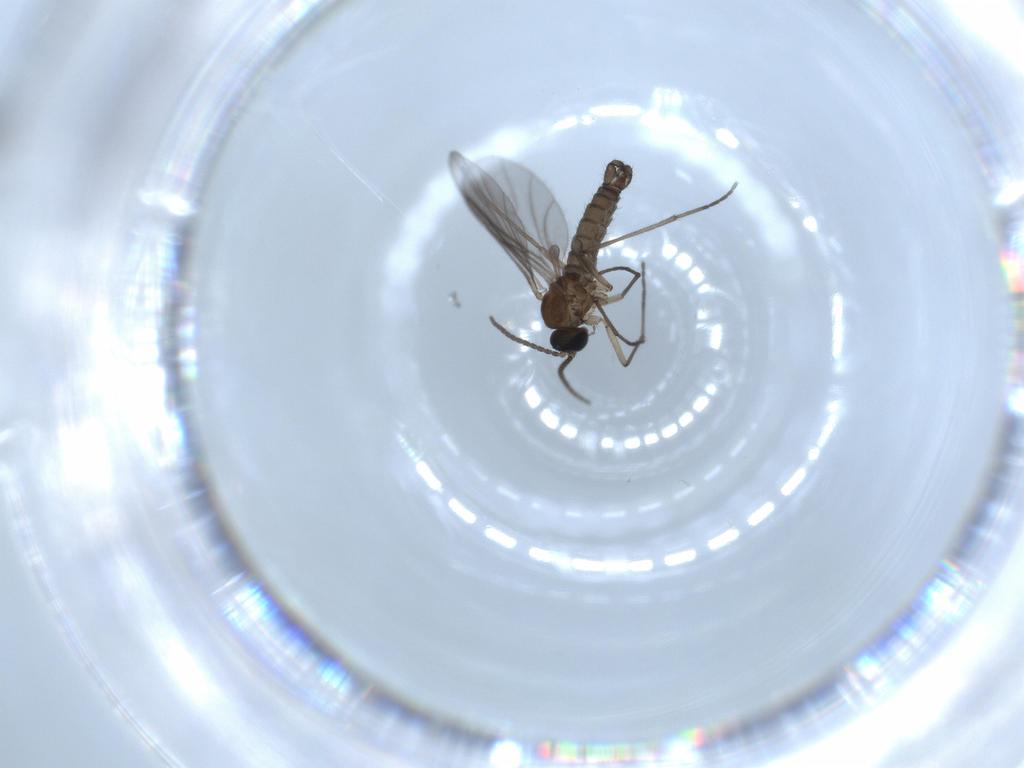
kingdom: Animalia
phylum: Arthropoda
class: Insecta
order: Diptera
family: Sciaridae
